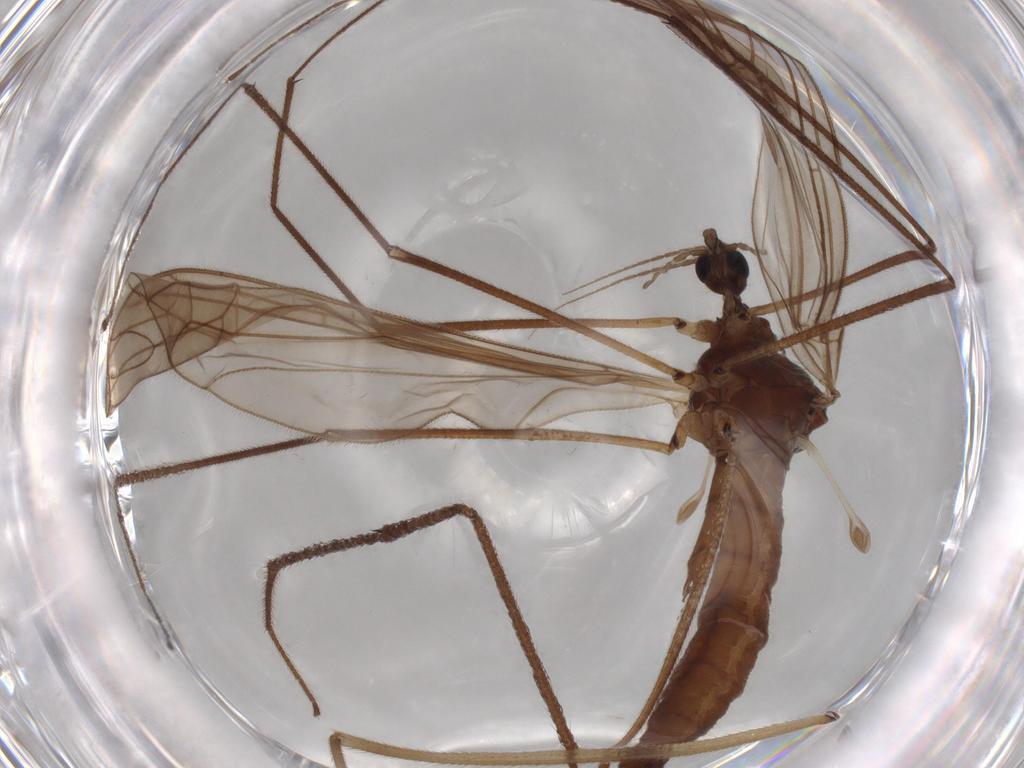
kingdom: Animalia
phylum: Arthropoda
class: Insecta
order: Diptera
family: Trichoceridae
